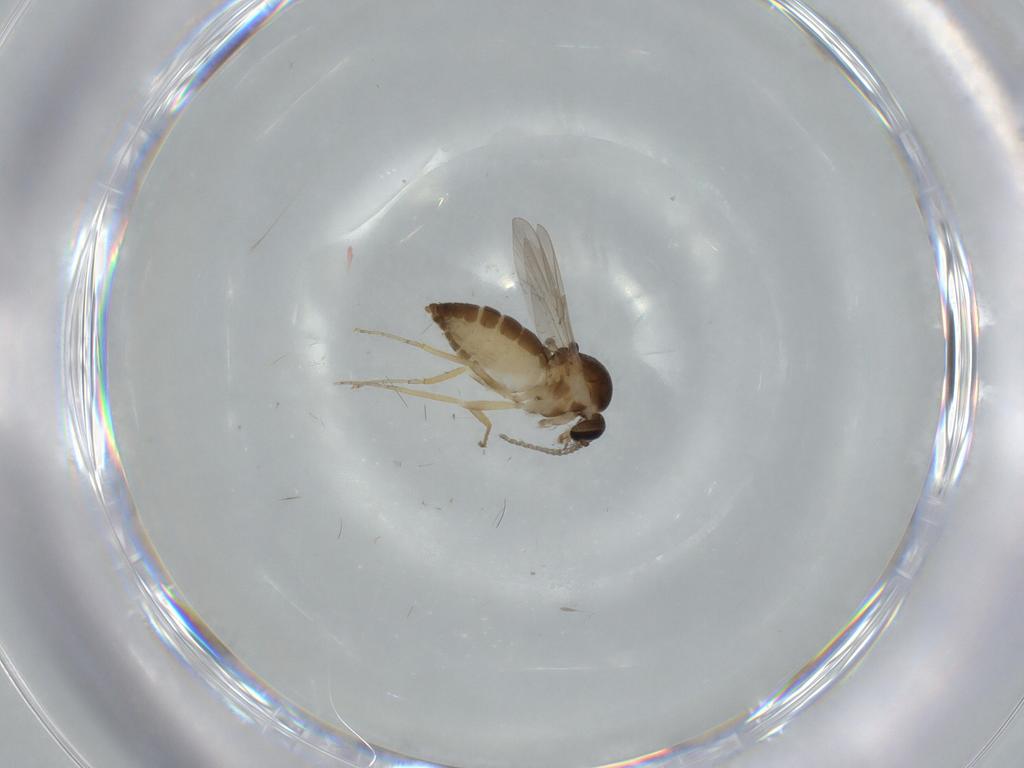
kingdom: Animalia
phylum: Arthropoda
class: Insecta
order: Diptera
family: Ceratopogonidae
